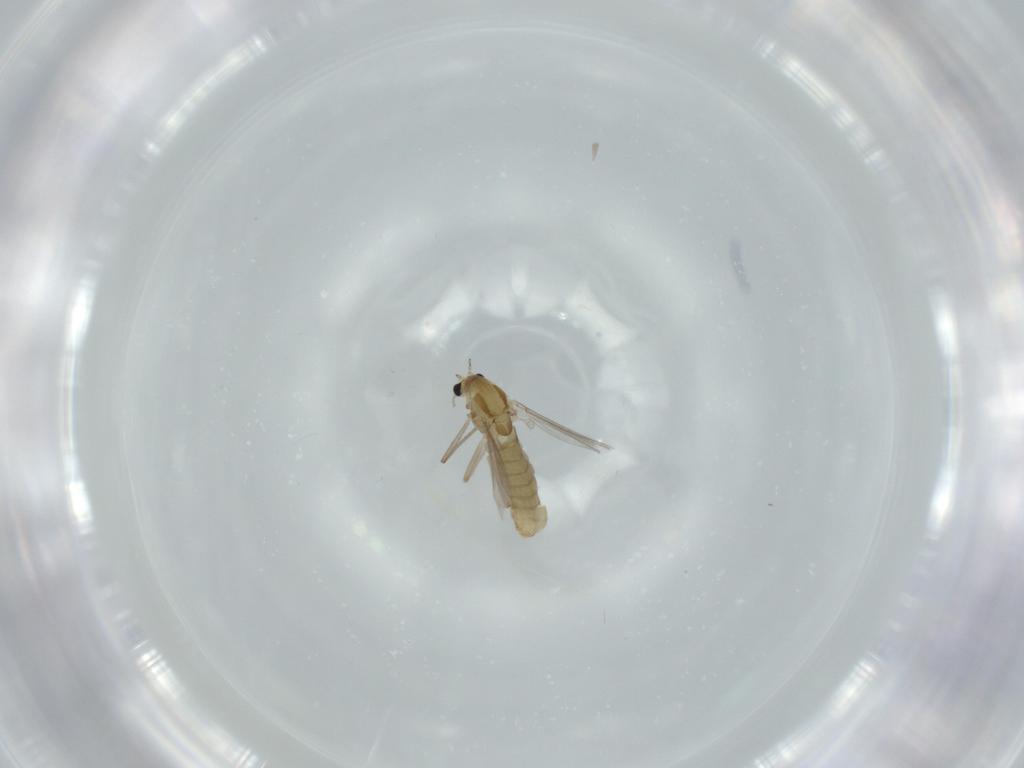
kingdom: Animalia
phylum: Arthropoda
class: Insecta
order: Diptera
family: Chironomidae
